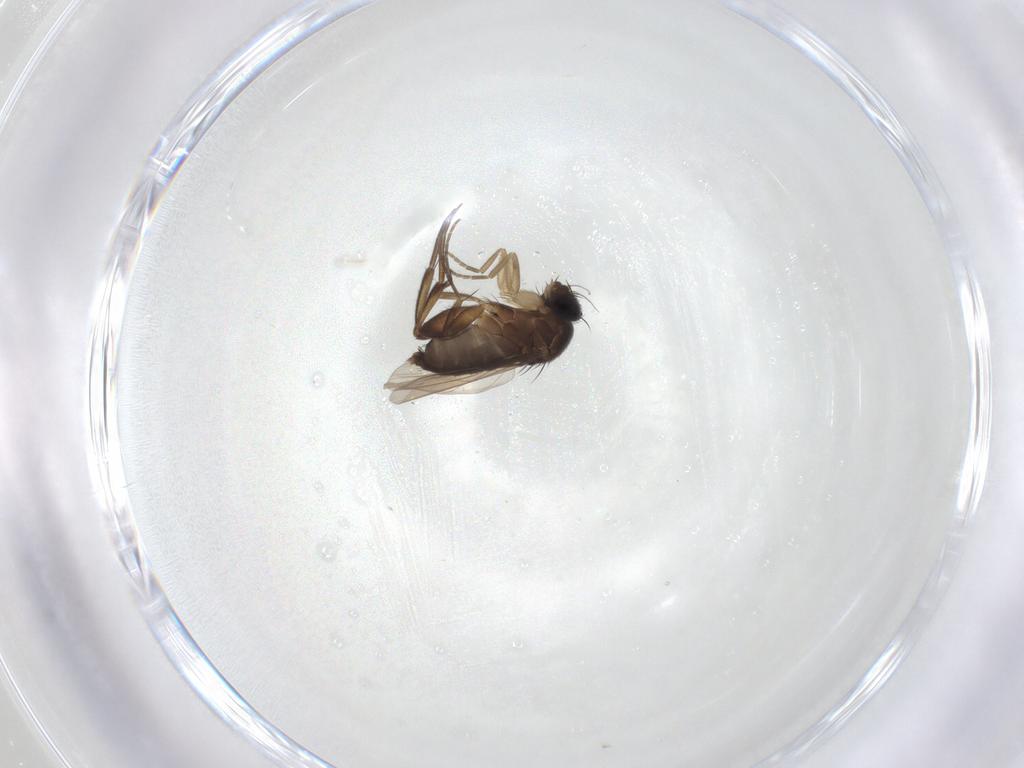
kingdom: Animalia
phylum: Arthropoda
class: Insecta
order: Diptera
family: Phoridae
